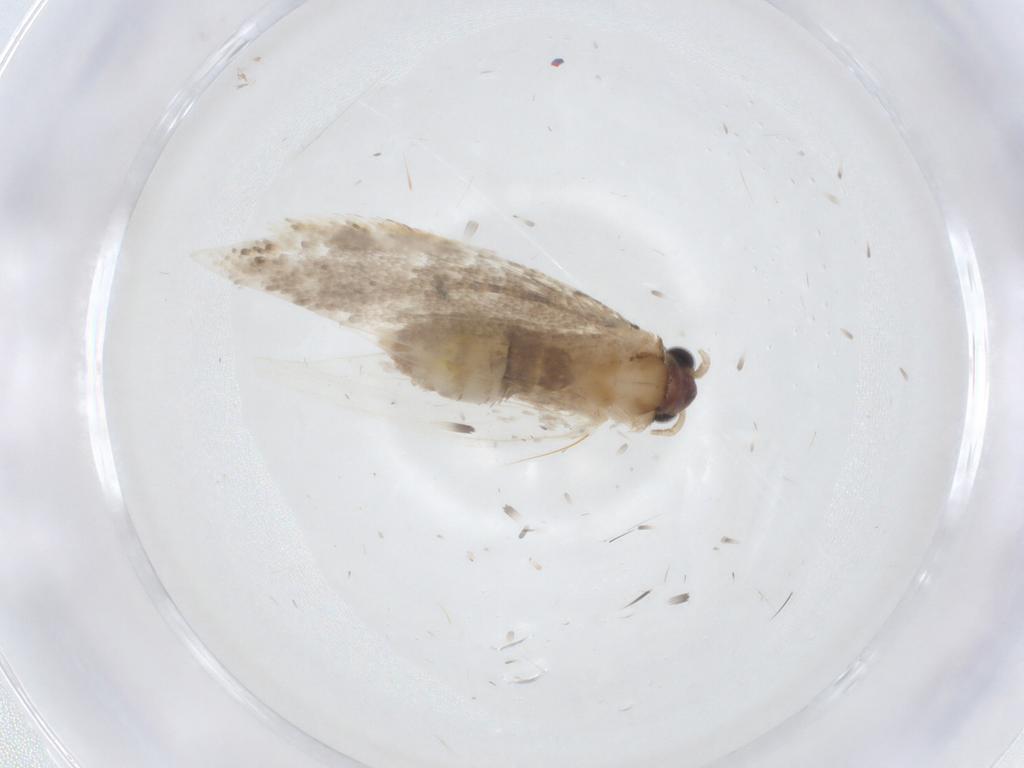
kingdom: Animalia
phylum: Arthropoda
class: Insecta
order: Lepidoptera
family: Tineidae
